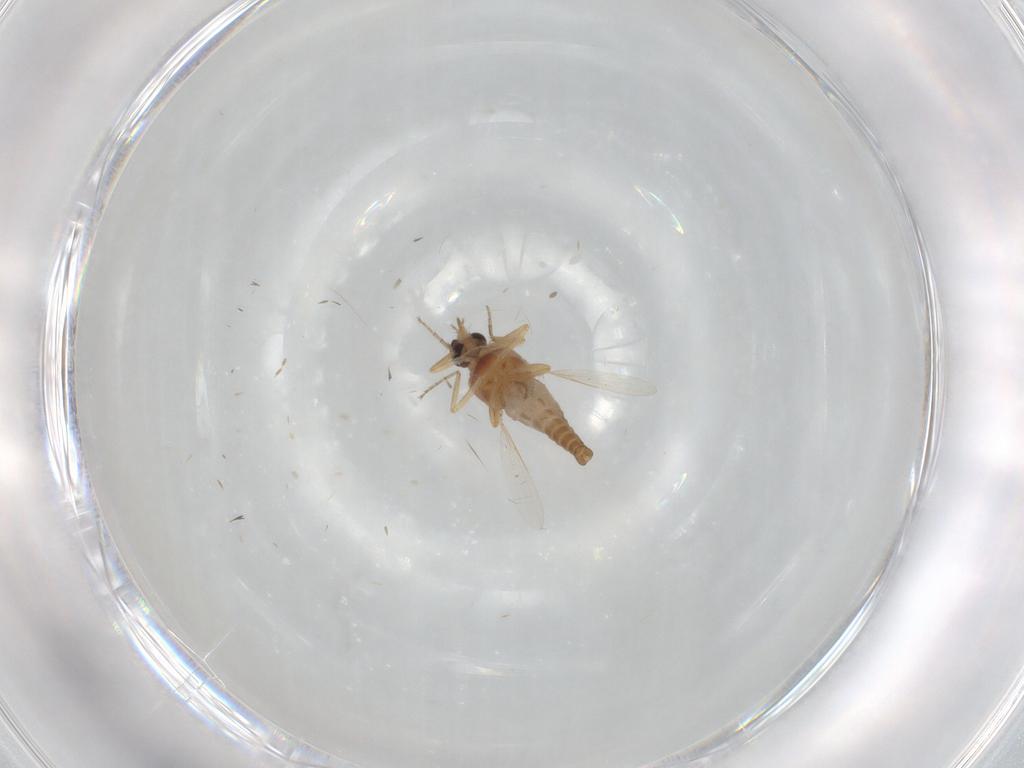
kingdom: Animalia
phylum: Arthropoda
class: Insecta
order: Diptera
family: Ceratopogonidae
